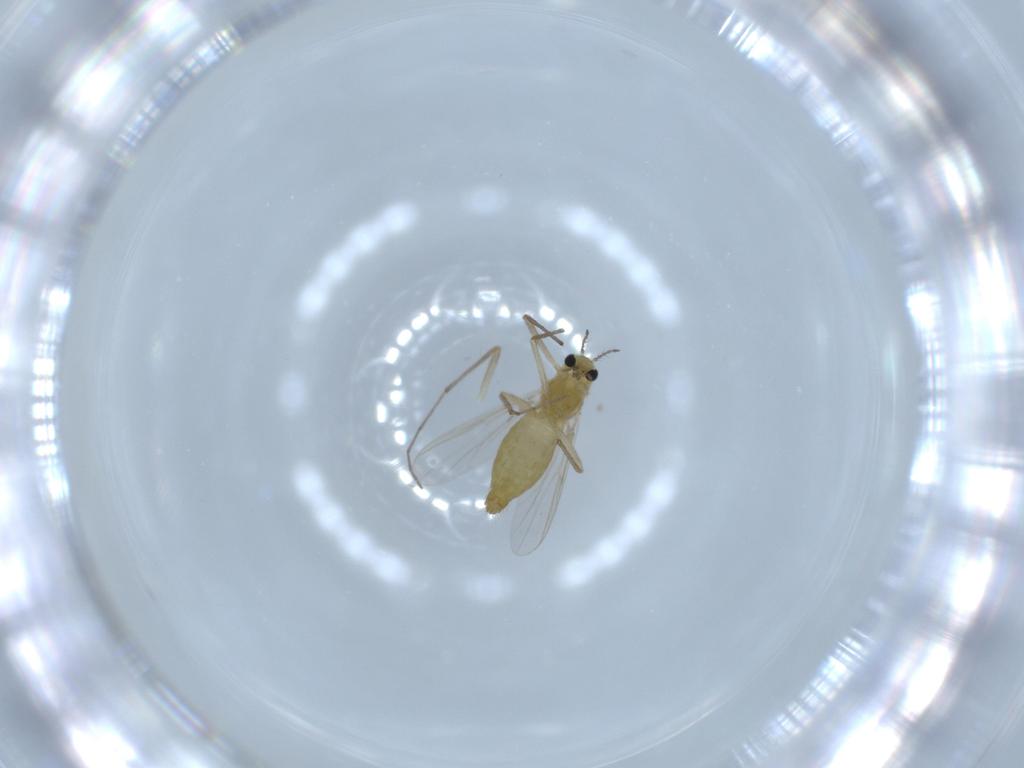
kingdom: Animalia
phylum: Arthropoda
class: Insecta
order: Diptera
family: Chironomidae
